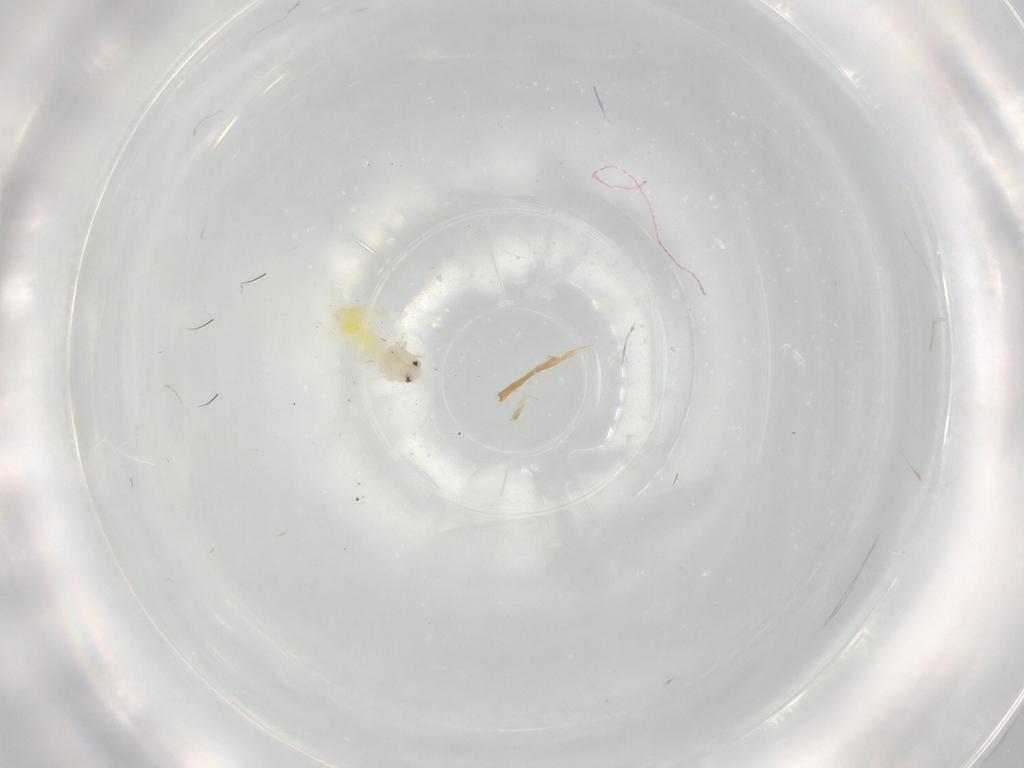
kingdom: Animalia
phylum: Arthropoda
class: Insecta
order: Hemiptera
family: Aleyrodidae
